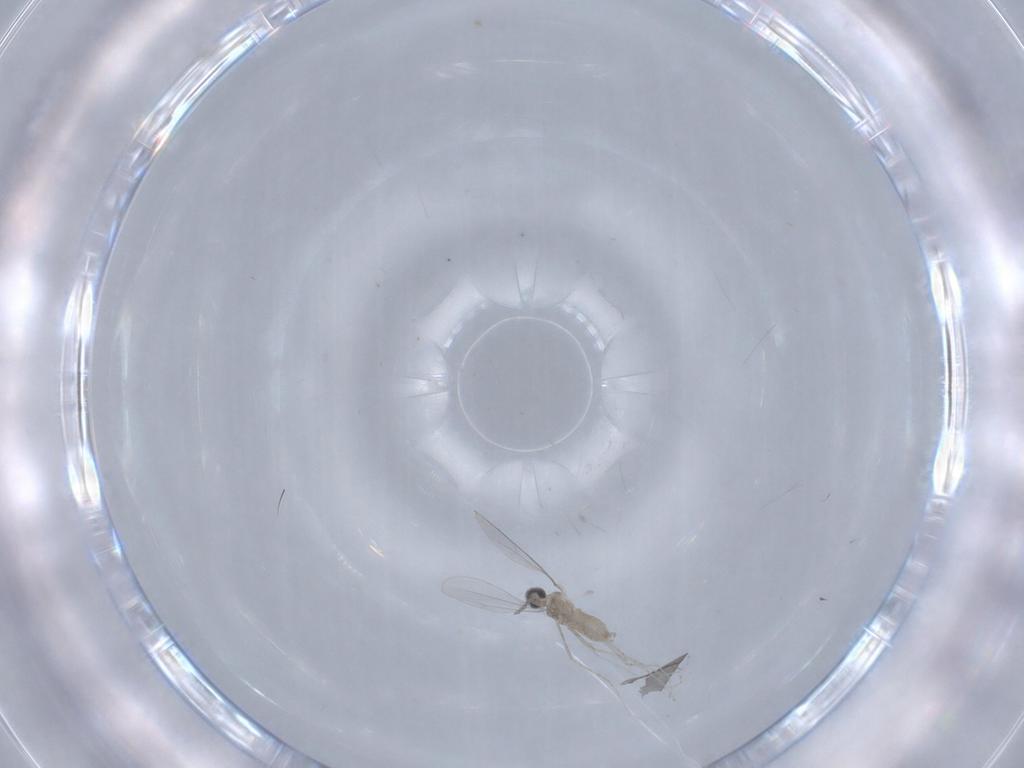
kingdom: Animalia
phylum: Arthropoda
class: Insecta
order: Diptera
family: Cecidomyiidae
